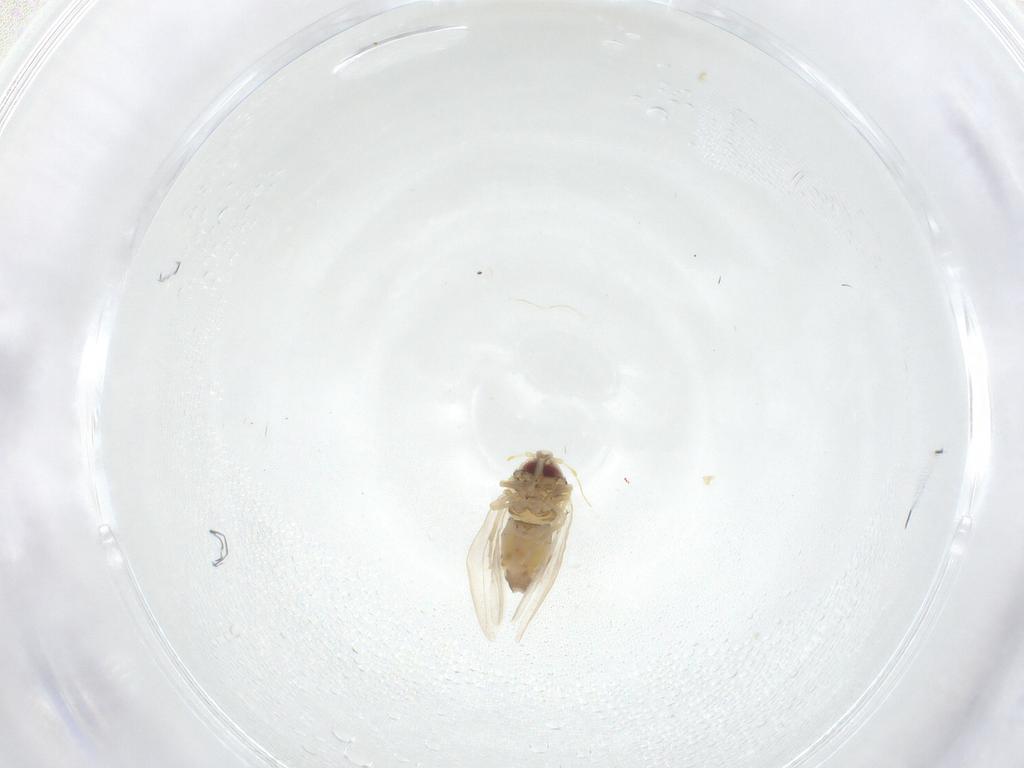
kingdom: Animalia
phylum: Arthropoda
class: Insecta
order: Hemiptera
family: Aleyrodidae
